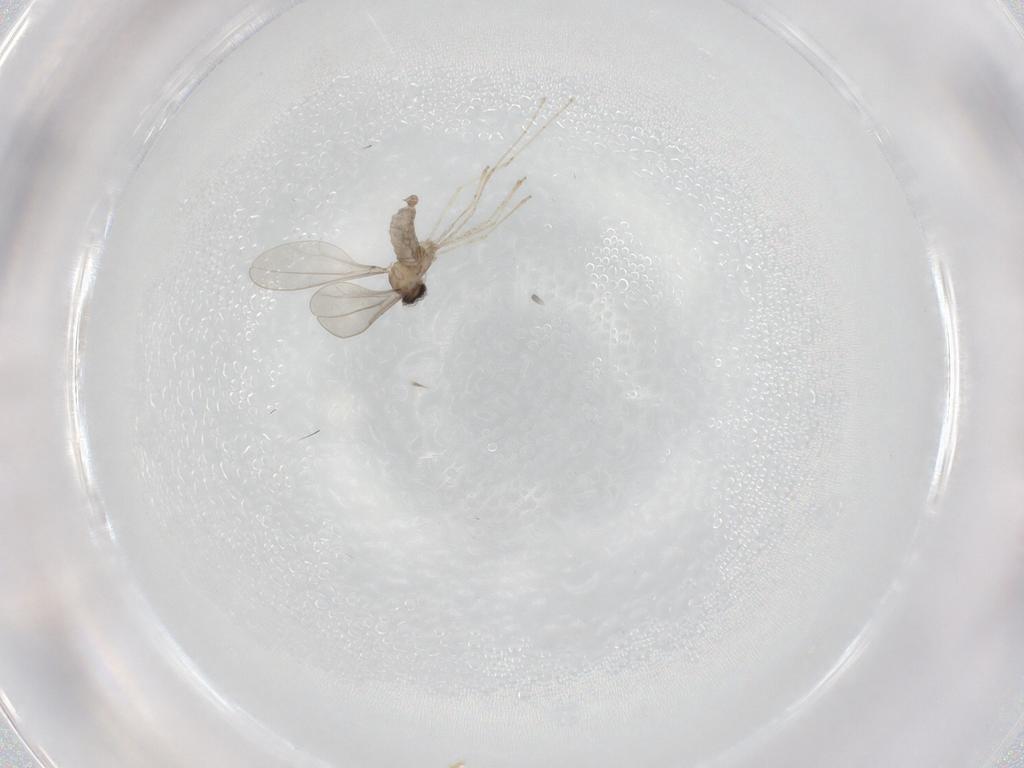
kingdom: Animalia
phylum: Arthropoda
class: Insecta
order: Diptera
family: Cecidomyiidae
